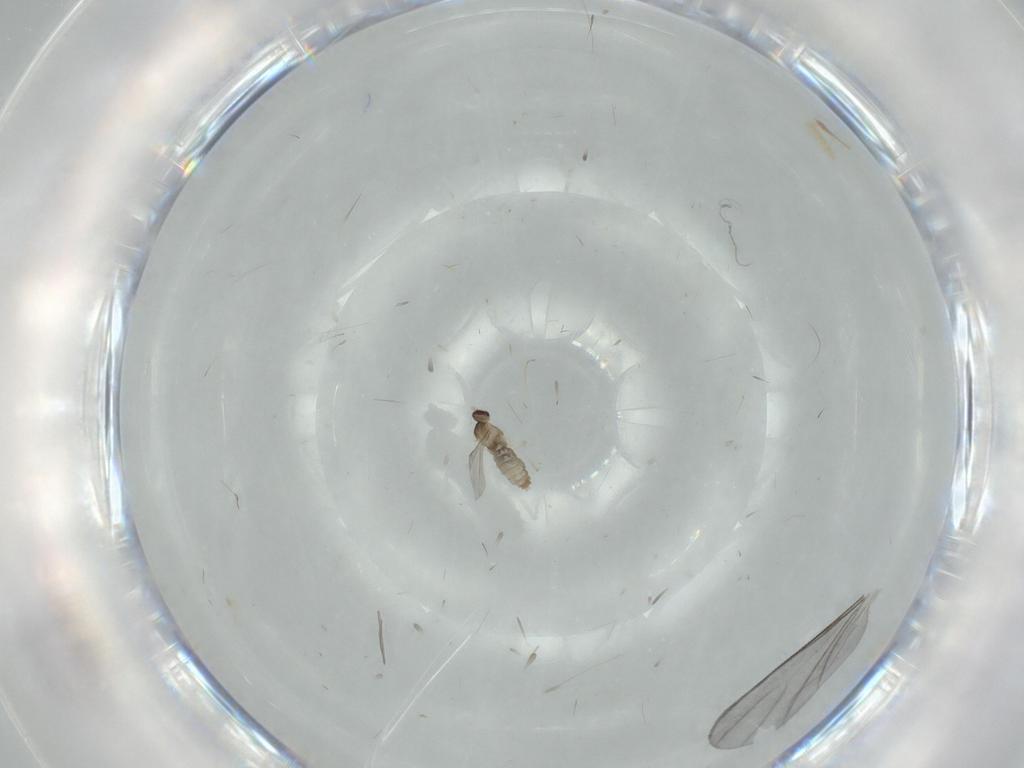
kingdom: Animalia
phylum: Arthropoda
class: Insecta
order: Diptera
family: Cecidomyiidae
